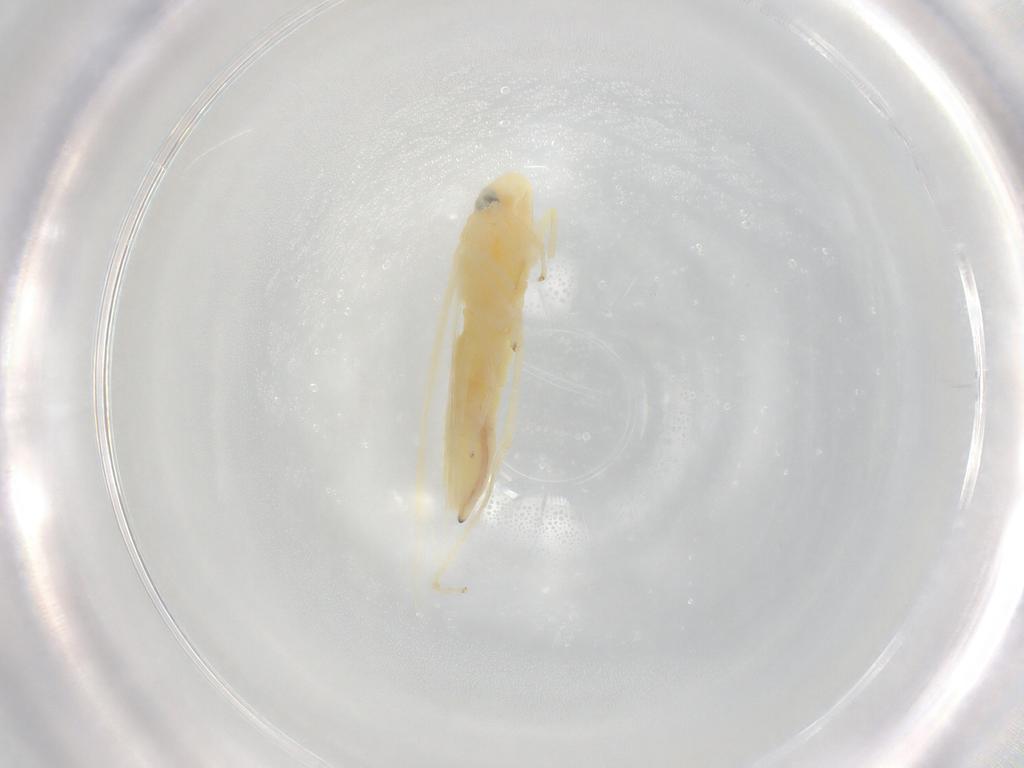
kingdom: Animalia
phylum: Arthropoda
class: Insecta
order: Hemiptera
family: Cicadellidae
